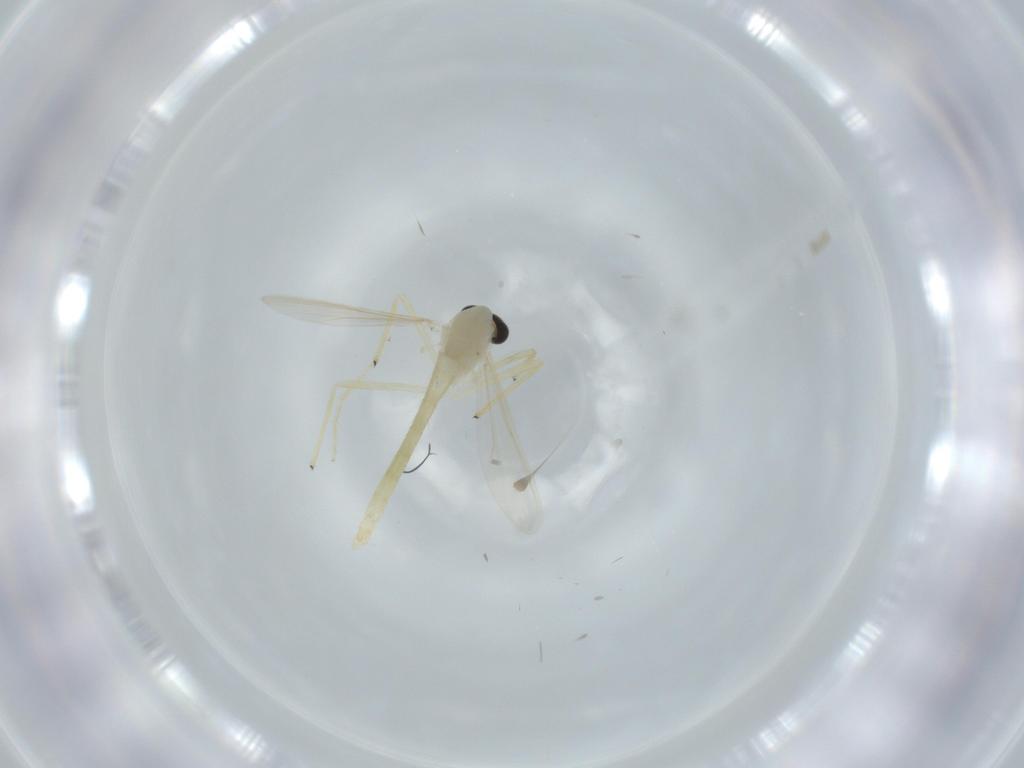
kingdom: Animalia
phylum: Arthropoda
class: Insecta
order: Diptera
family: Chironomidae
